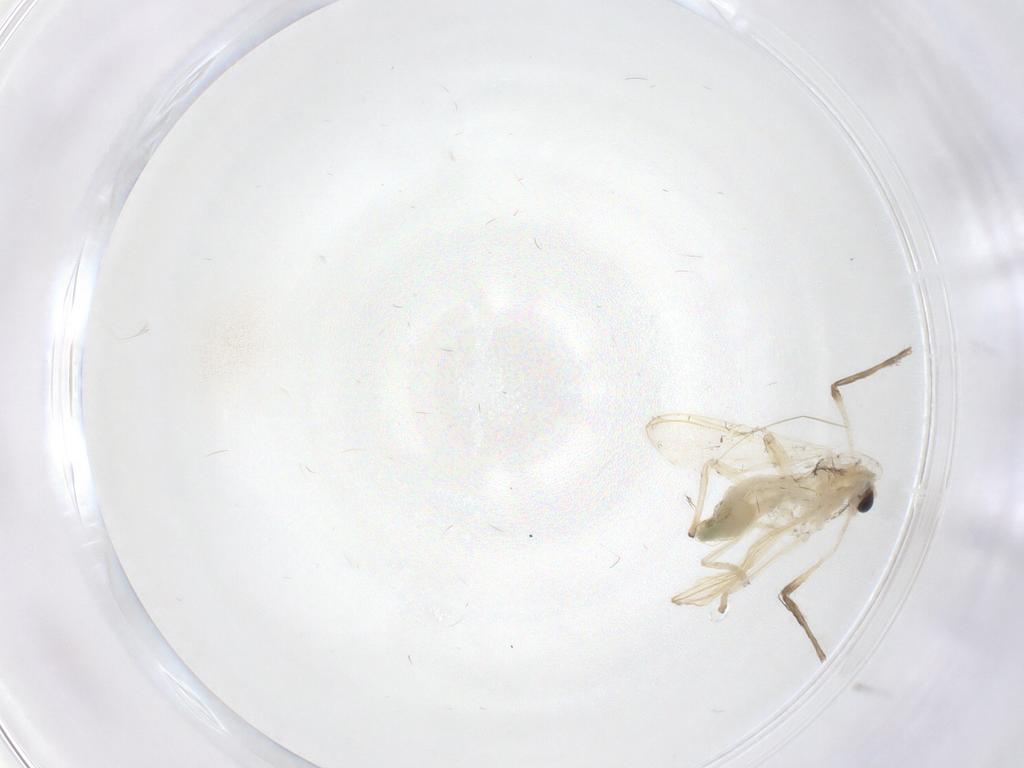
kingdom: Animalia
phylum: Arthropoda
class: Insecta
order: Diptera
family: Chironomidae
